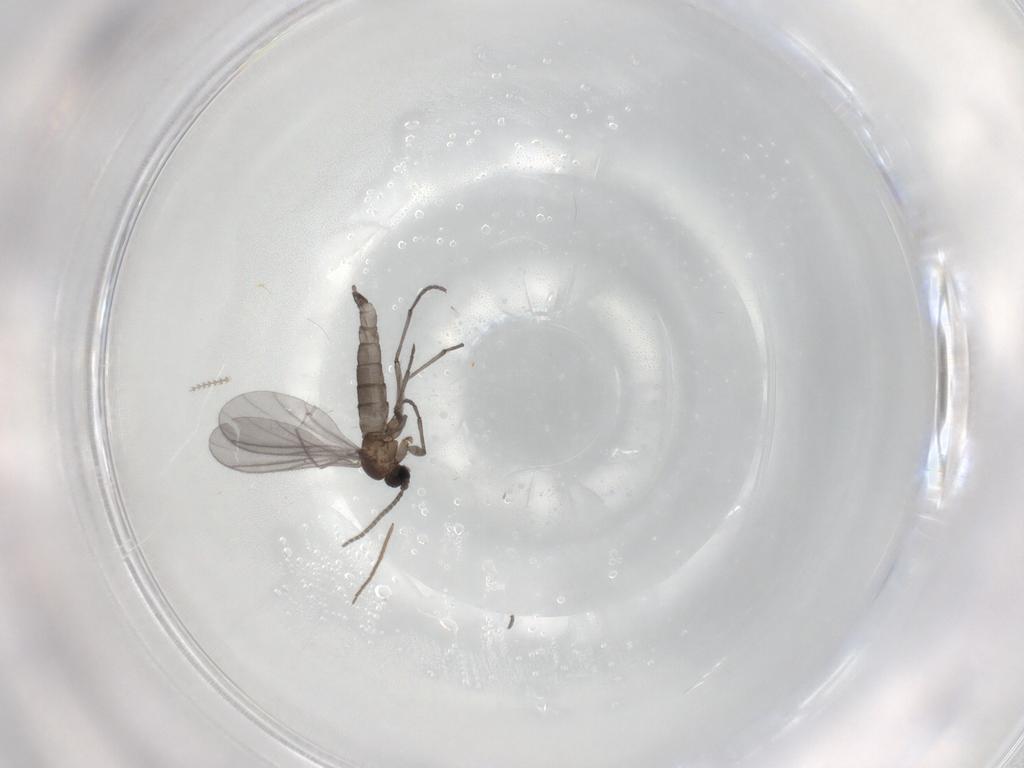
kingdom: Animalia
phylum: Arthropoda
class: Insecta
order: Diptera
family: Sciaridae
